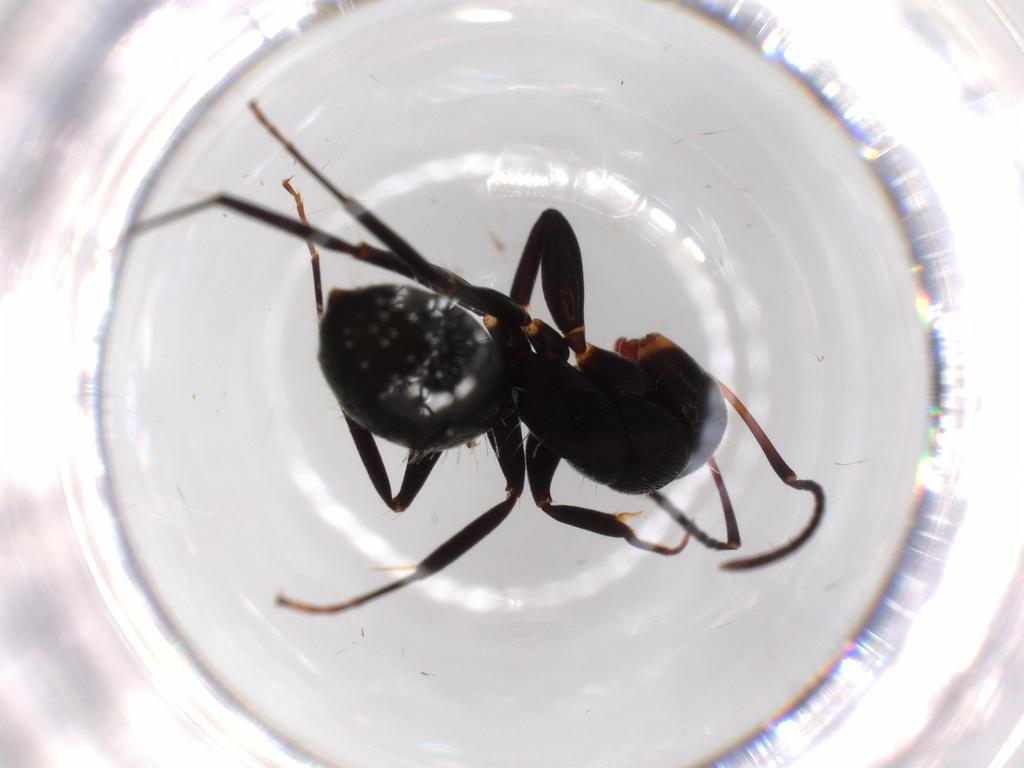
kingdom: Animalia
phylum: Arthropoda
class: Insecta
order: Hymenoptera
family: Formicidae
